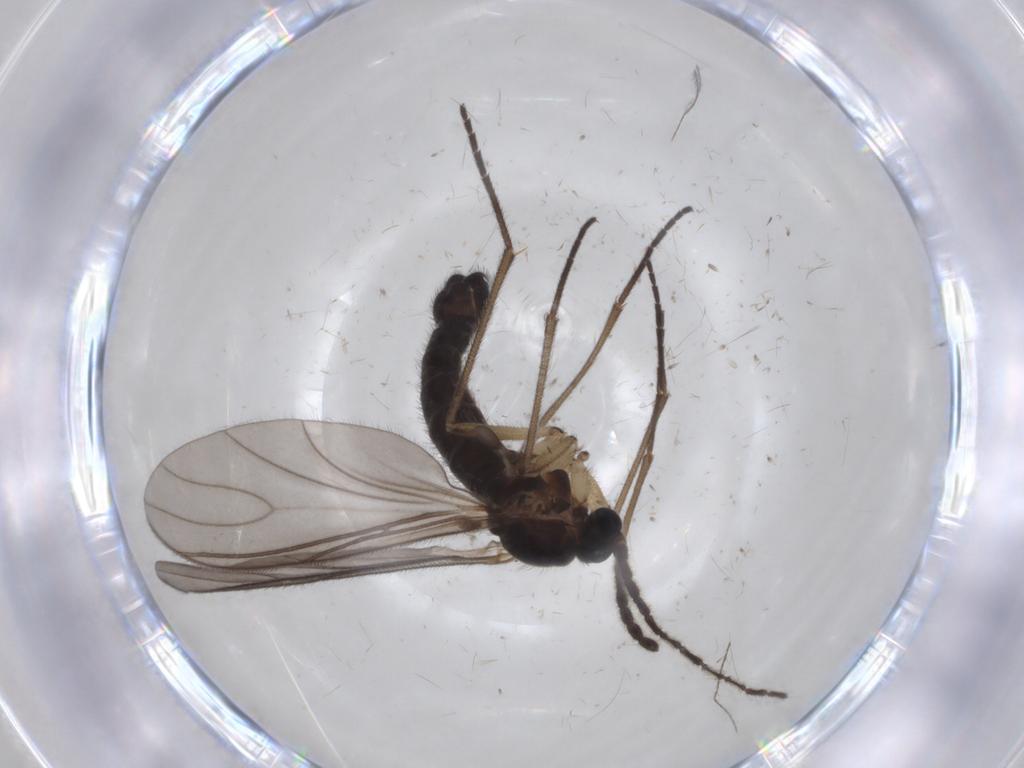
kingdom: Animalia
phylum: Arthropoda
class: Insecta
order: Diptera
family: Sciaridae
